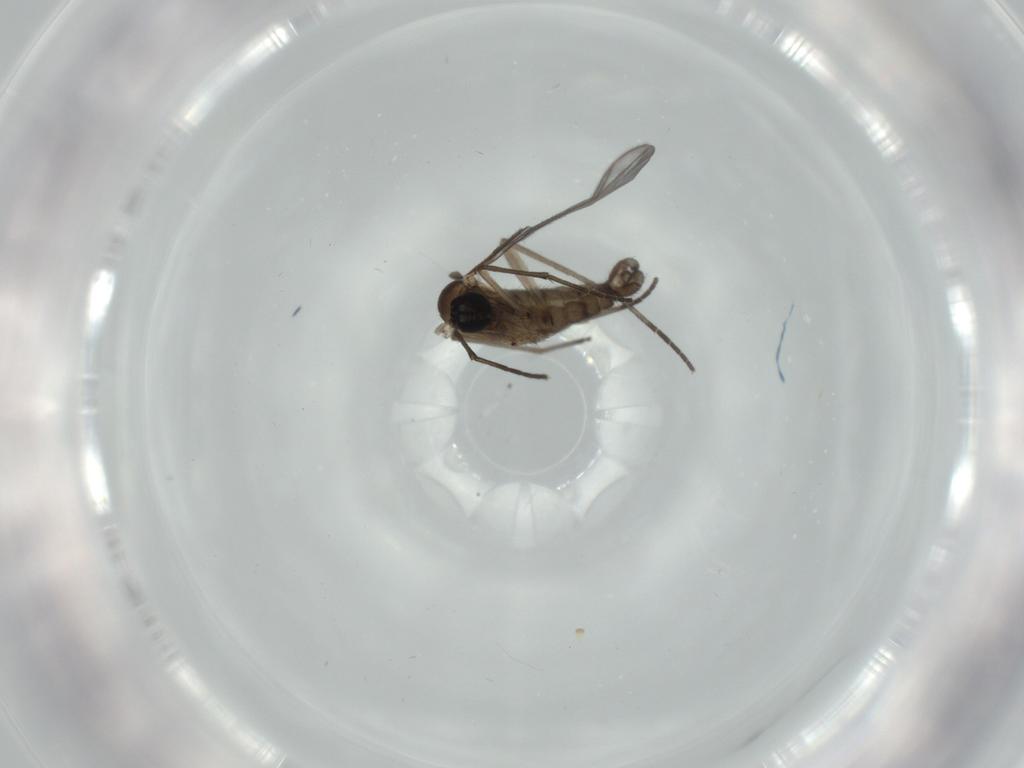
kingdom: Animalia
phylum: Arthropoda
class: Insecta
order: Diptera
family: Sciaridae
